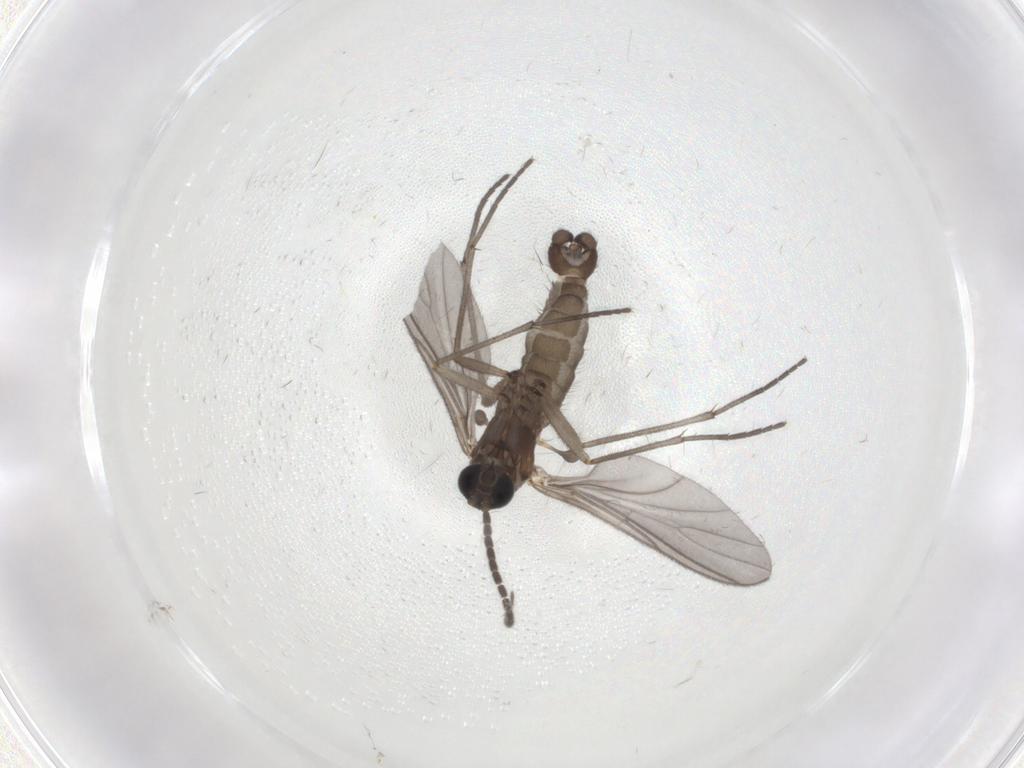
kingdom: Animalia
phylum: Arthropoda
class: Insecta
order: Diptera
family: Sciaridae
